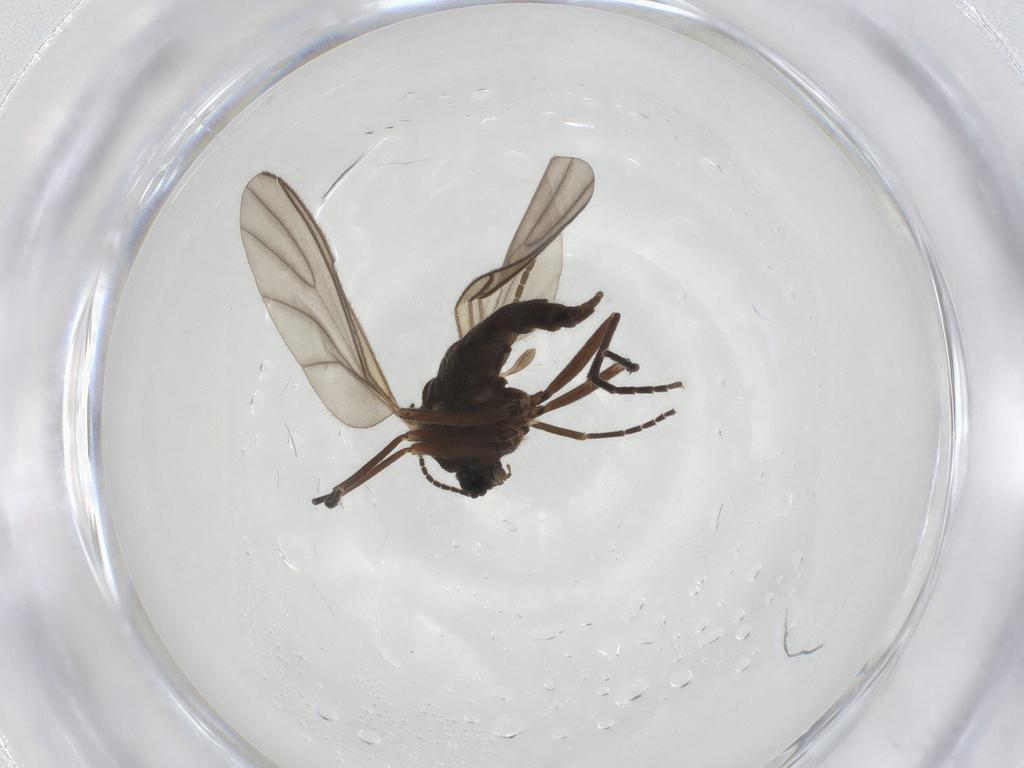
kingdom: Animalia
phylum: Arthropoda
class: Insecta
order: Diptera
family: Sciaridae
